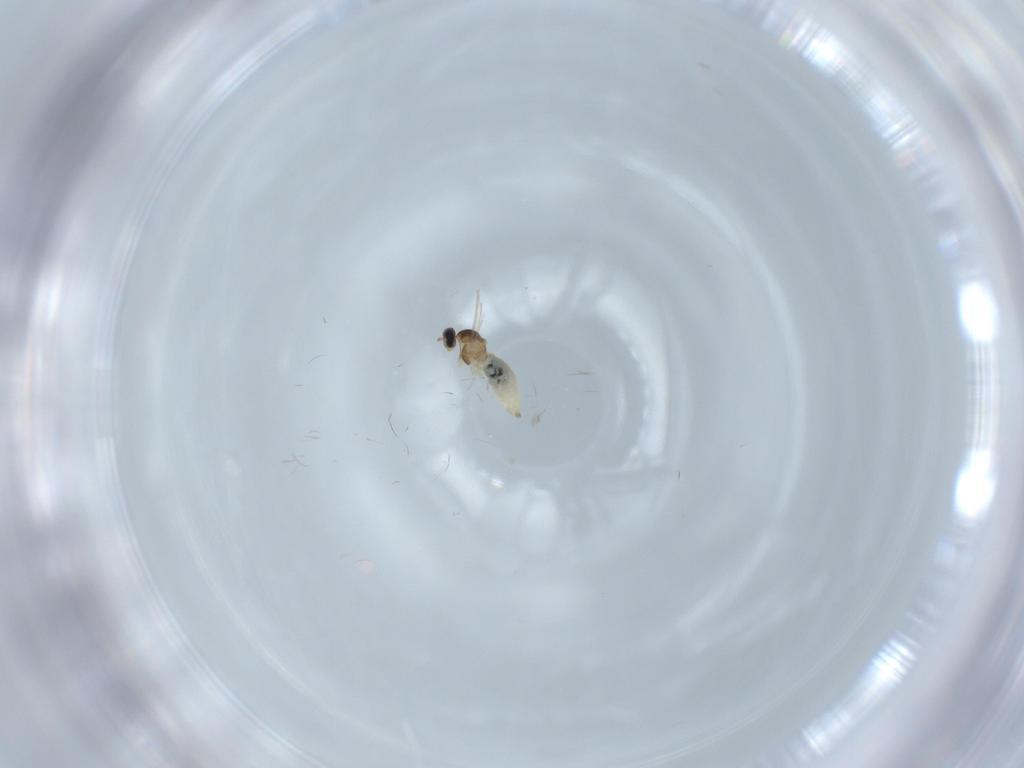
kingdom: Animalia
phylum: Arthropoda
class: Insecta
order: Diptera
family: Cecidomyiidae
